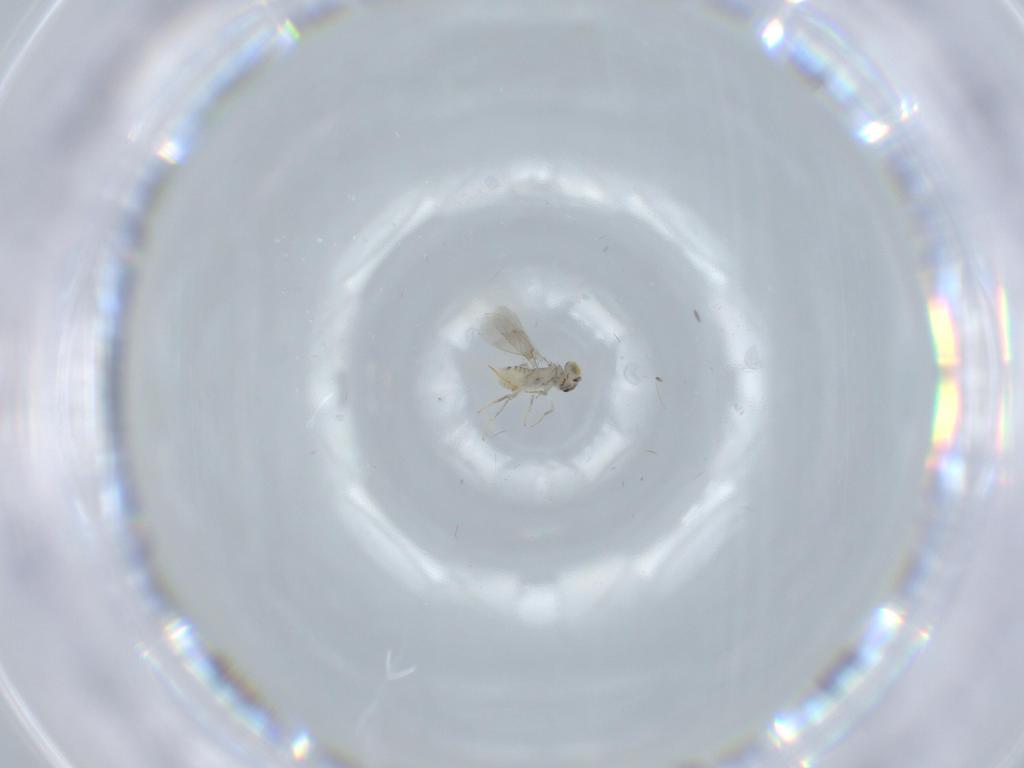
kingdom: Animalia
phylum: Arthropoda
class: Insecta
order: Hymenoptera
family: Aphelinidae
